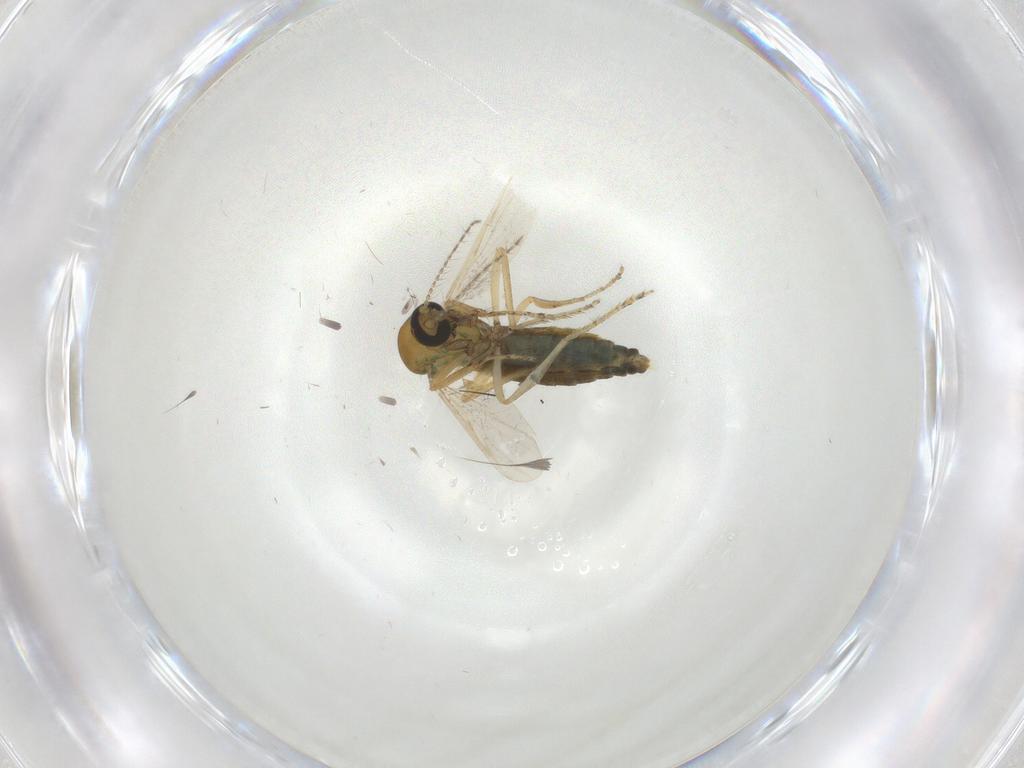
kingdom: Animalia
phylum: Arthropoda
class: Insecta
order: Diptera
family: Ceratopogonidae
